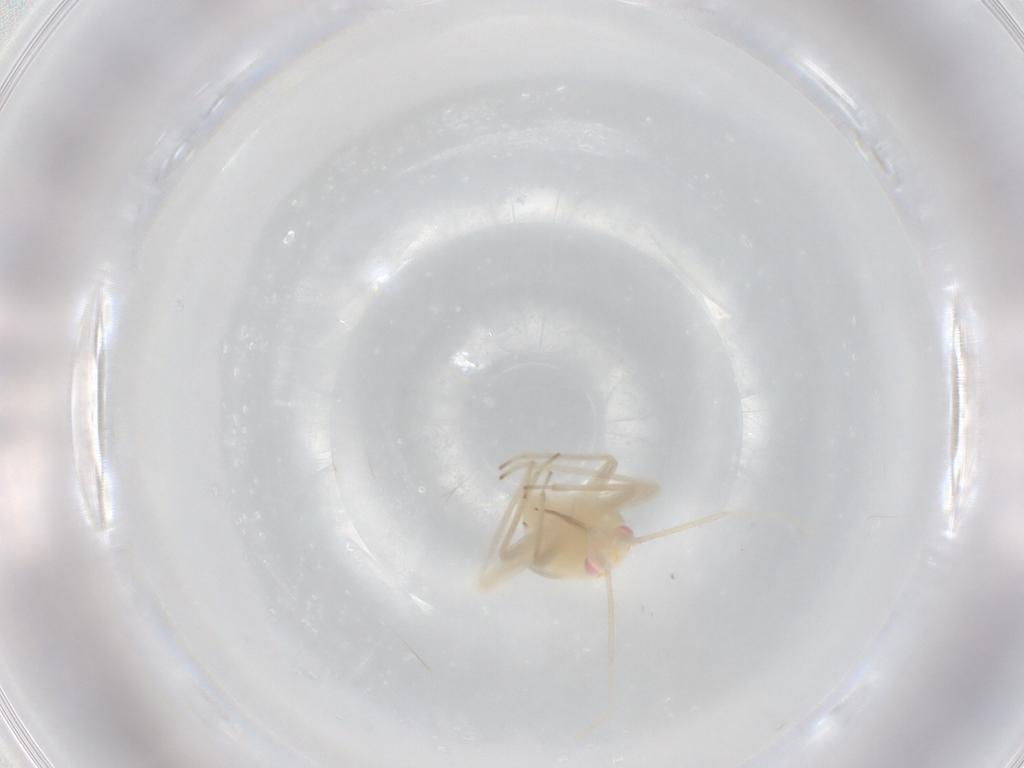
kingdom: Animalia
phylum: Arthropoda
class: Insecta
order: Hemiptera
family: Miridae
